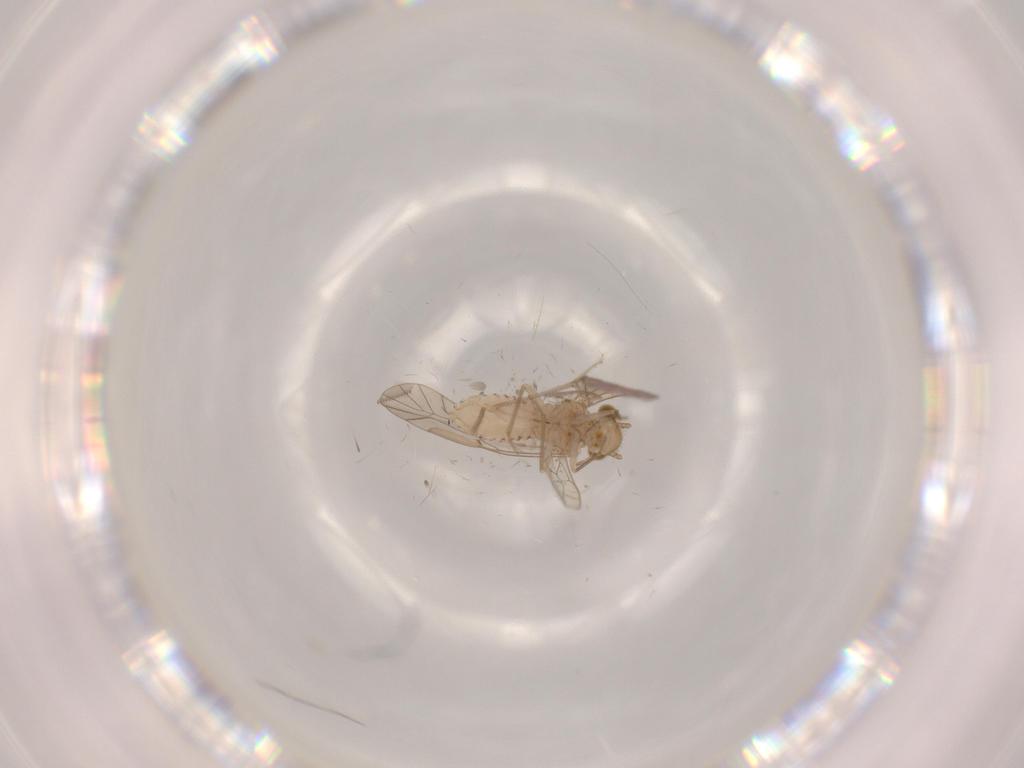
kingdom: Animalia
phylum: Arthropoda
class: Insecta
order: Psocodea
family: Lachesillidae
